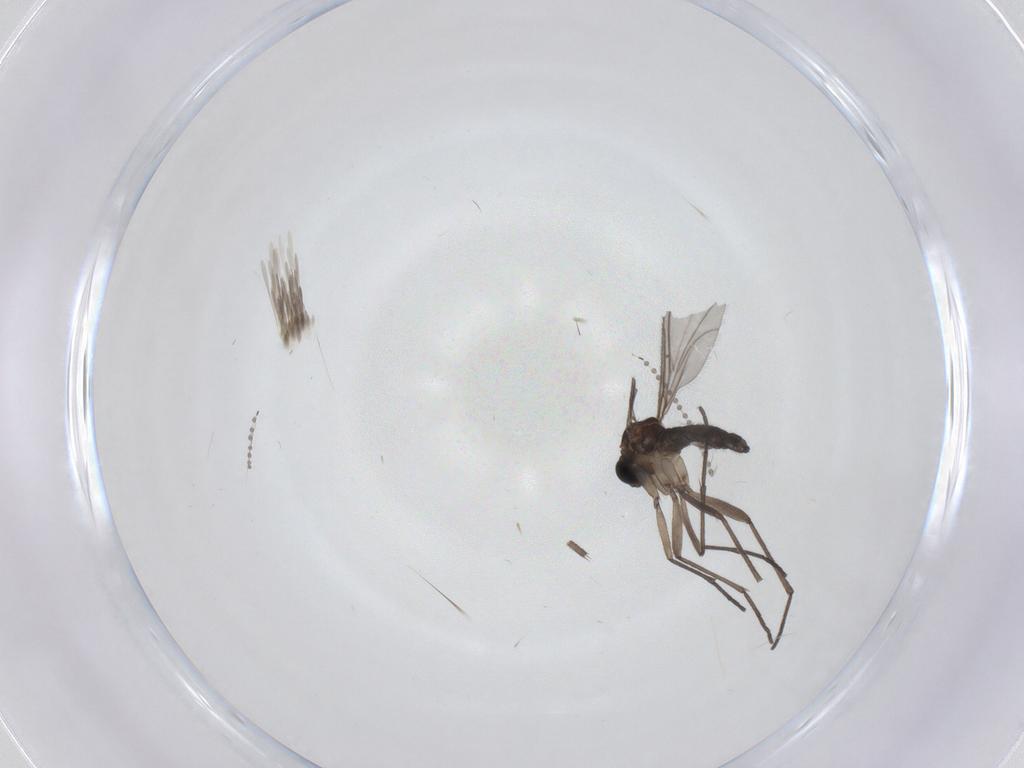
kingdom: Animalia
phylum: Arthropoda
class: Insecta
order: Diptera
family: Sciaridae
